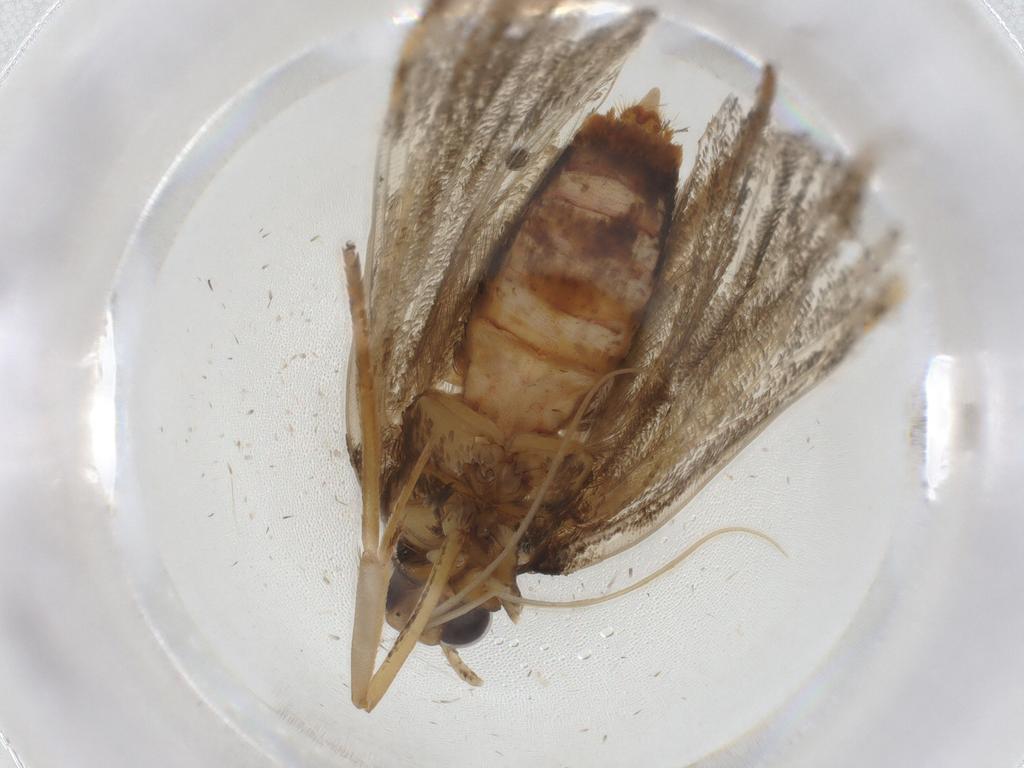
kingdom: Animalia
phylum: Arthropoda
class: Insecta
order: Lepidoptera
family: Lecithoceridae
